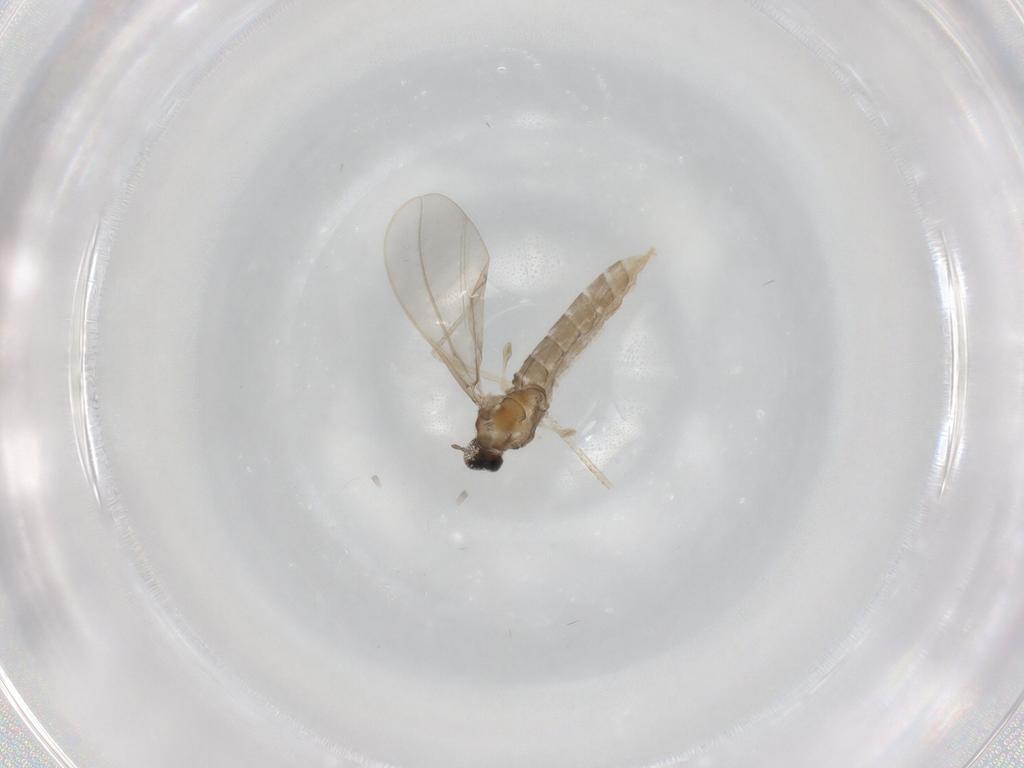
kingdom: Animalia
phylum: Arthropoda
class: Insecta
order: Diptera
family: Cecidomyiidae
